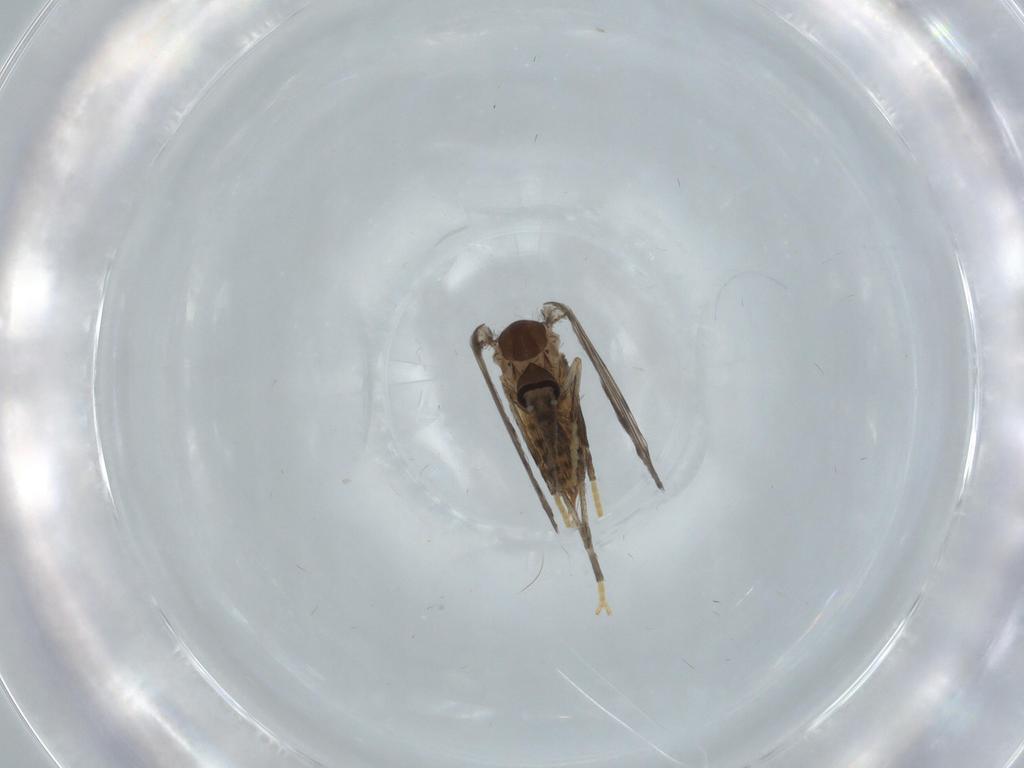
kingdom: Animalia
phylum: Arthropoda
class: Insecta
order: Diptera
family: Psychodidae
